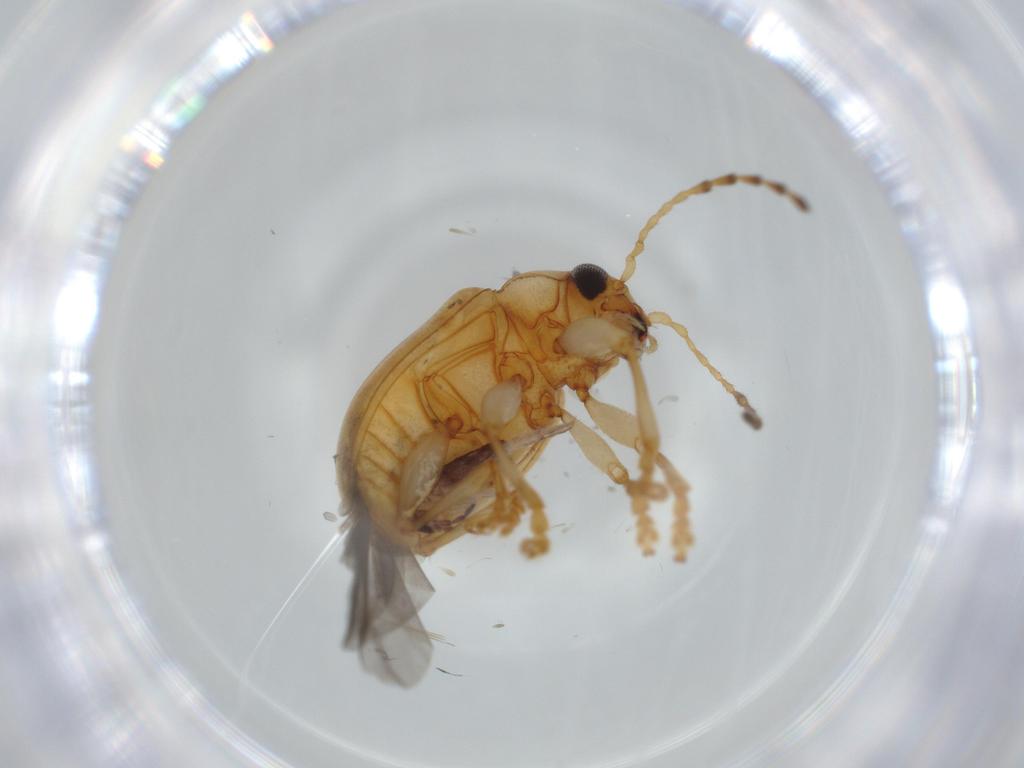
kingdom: Animalia
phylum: Arthropoda
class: Insecta
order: Coleoptera
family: Chrysomelidae
